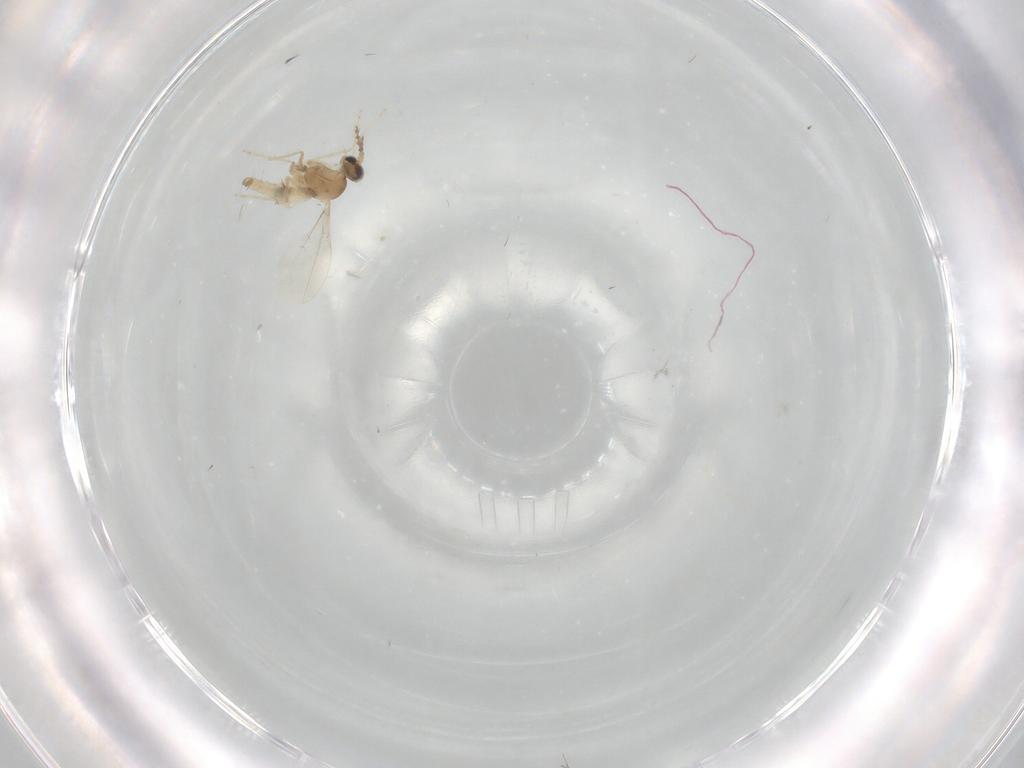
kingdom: Animalia
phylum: Arthropoda
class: Insecta
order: Diptera
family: Cecidomyiidae
